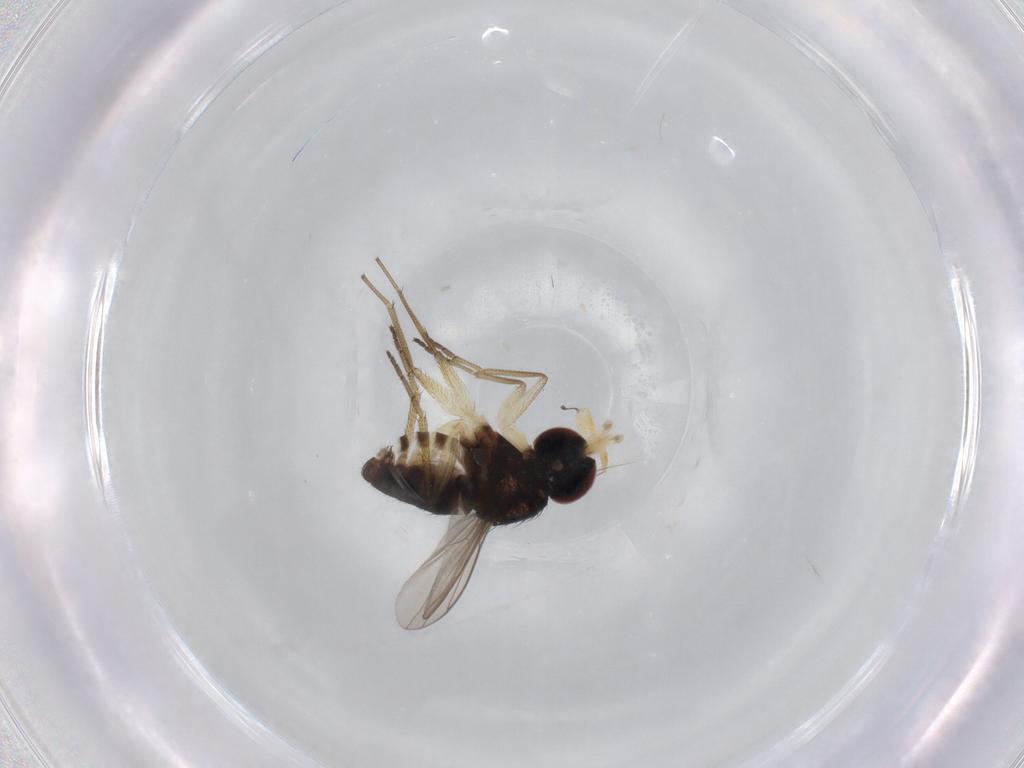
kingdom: Animalia
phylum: Arthropoda
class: Insecta
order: Diptera
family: Dolichopodidae
